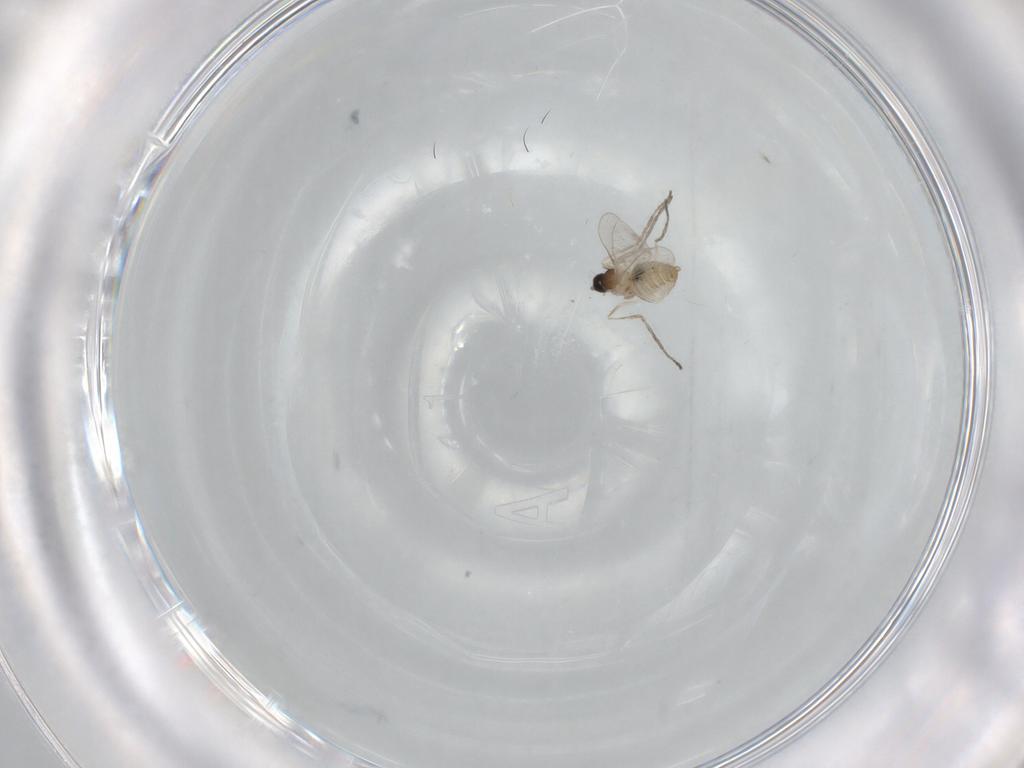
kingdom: Animalia
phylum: Arthropoda
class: Insecta
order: Diptera
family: Cecidomyiidae
